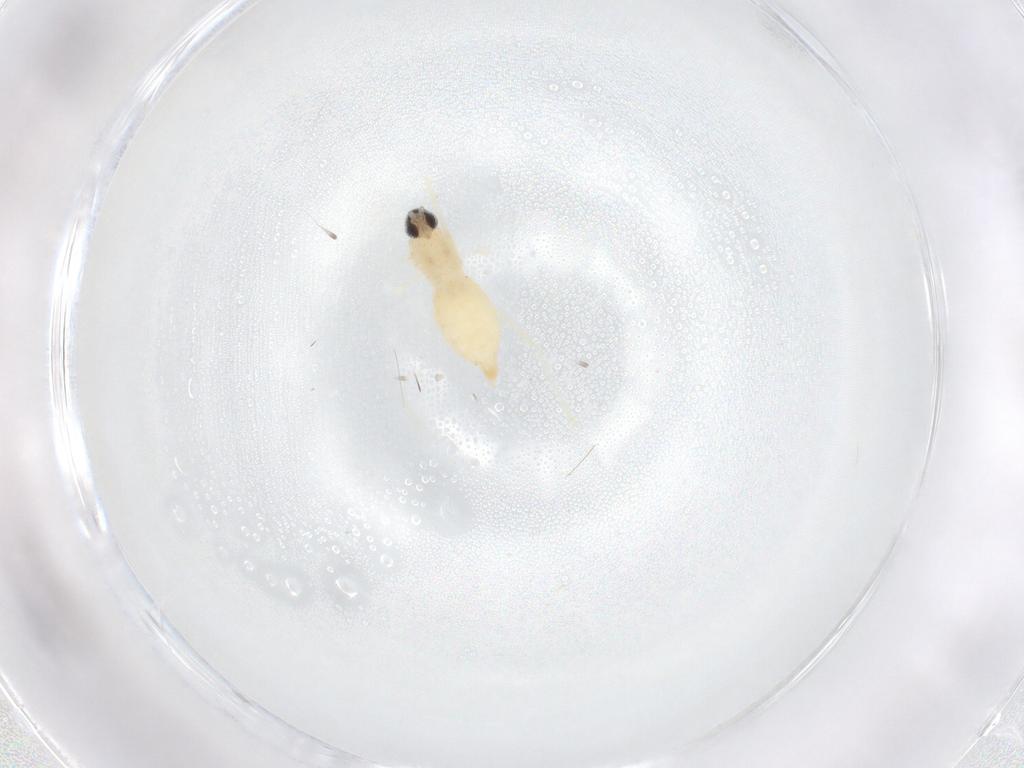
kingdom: Animalia
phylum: Arthropoda
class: Insecta
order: Diptera
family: Cecidomyiidae
